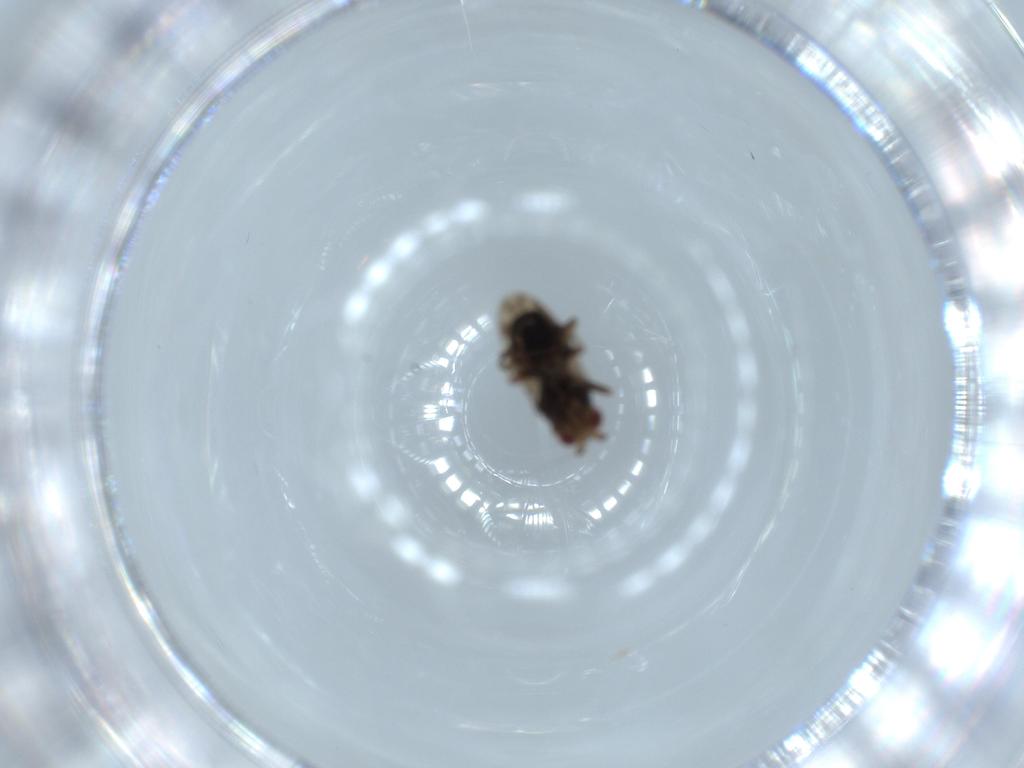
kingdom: Animalia
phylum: Arthropoda
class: Insecta
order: Diptera
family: Sphaeroceridae
